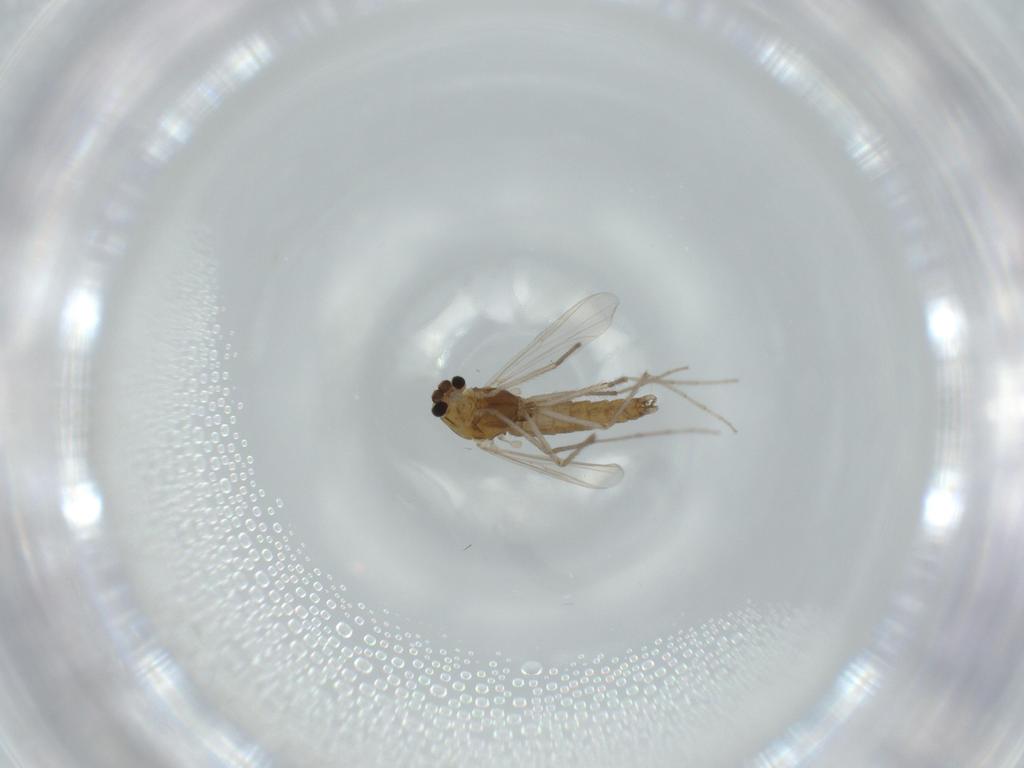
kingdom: Animalia
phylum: Arthropoda
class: Insecta
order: Diptera
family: Chironomidae
